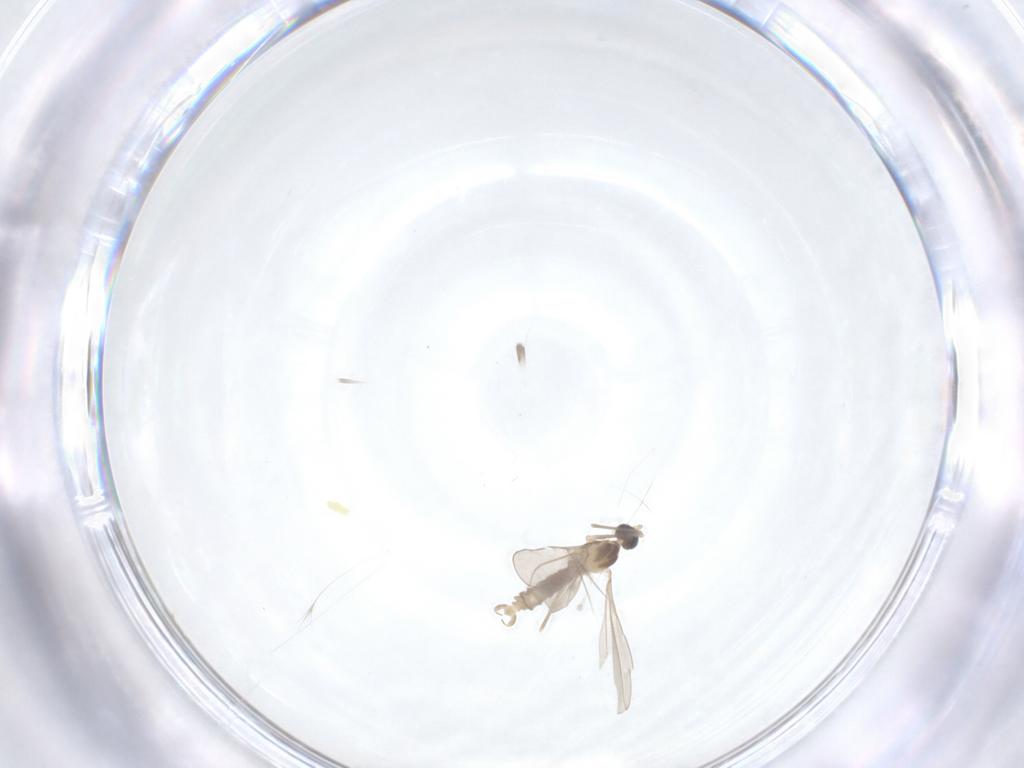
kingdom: Animalia
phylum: Arthropoda
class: Insecta
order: Diptera
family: Cecidomyiidae
